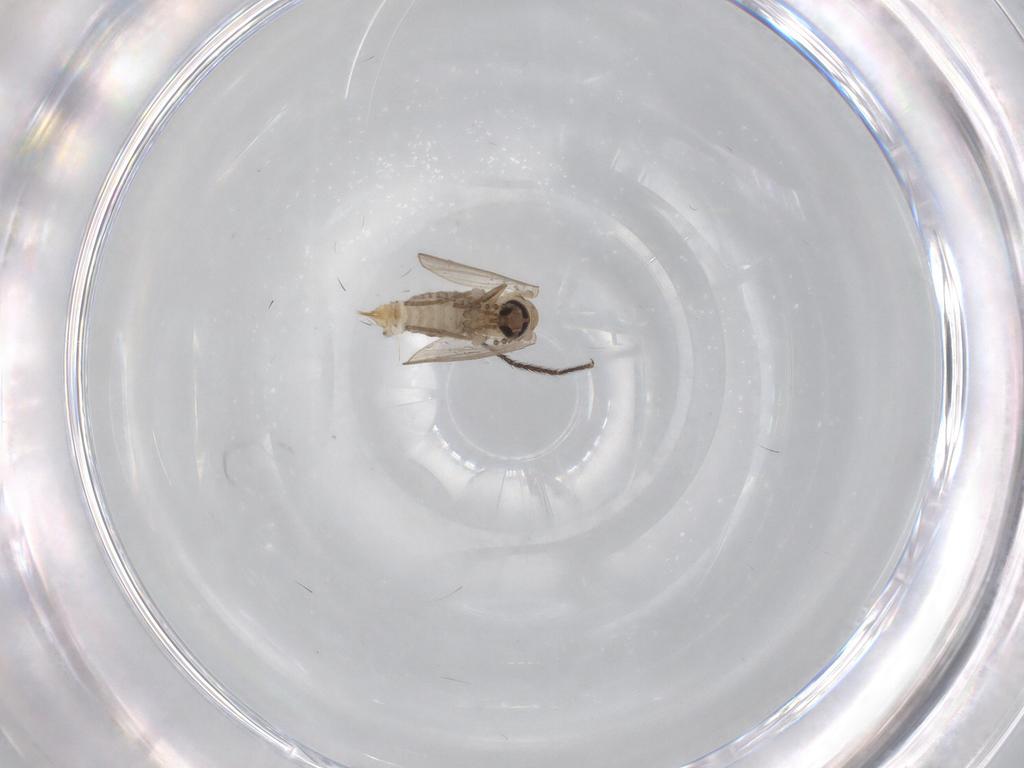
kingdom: Animalia
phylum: Arthropoda
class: Insecta
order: Diptera
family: Psychodidae
